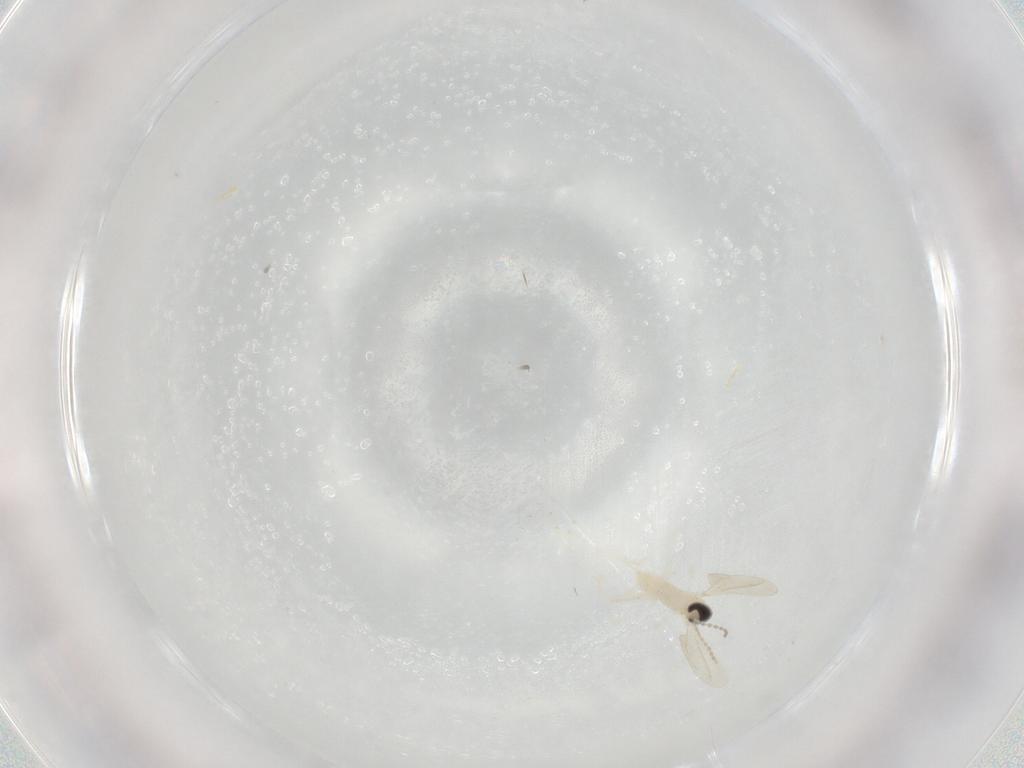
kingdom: Animalia
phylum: Arthropoda
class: Insecta
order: Diptera
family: Cecidomyiidae
